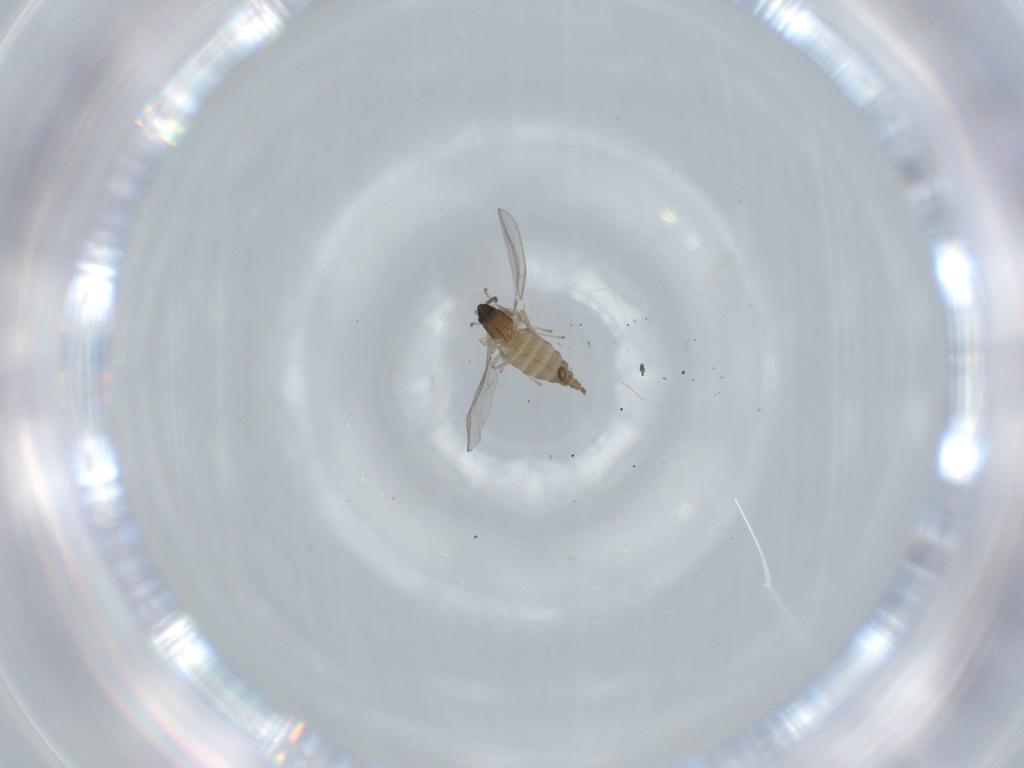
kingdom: Animalia
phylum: Arthropoda
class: Insecta
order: Diptera
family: Cecidomyiidae
